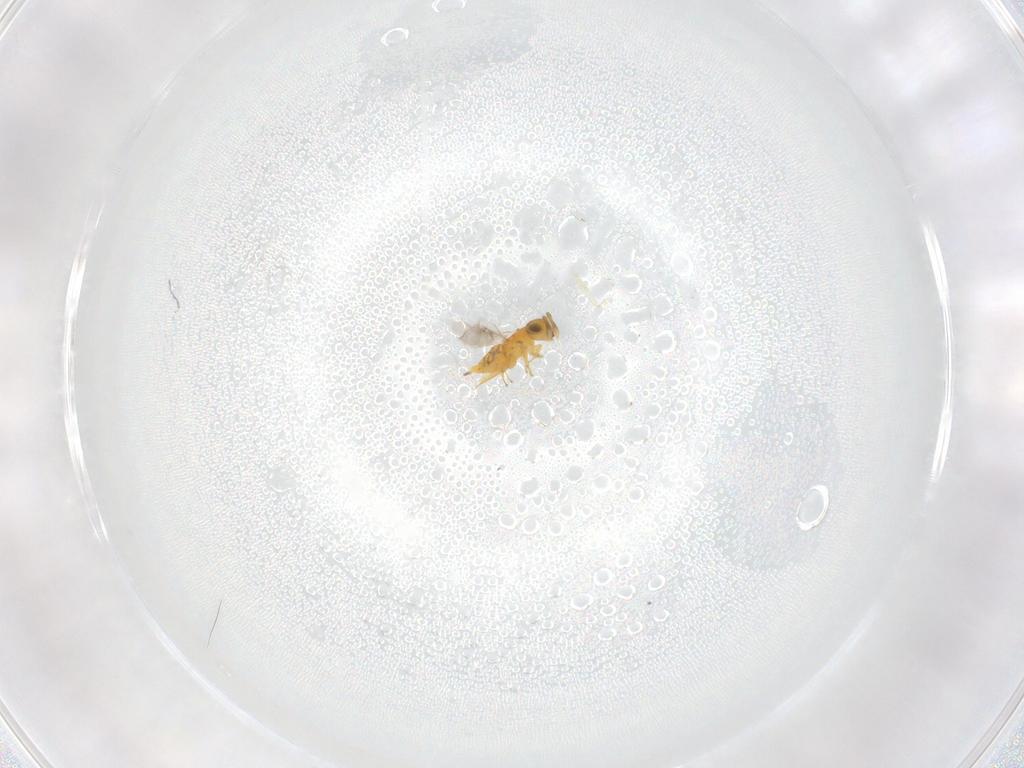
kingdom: Animalia
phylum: Arthropoda
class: Insecta
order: Hymenoptera
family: Encyrtidae
